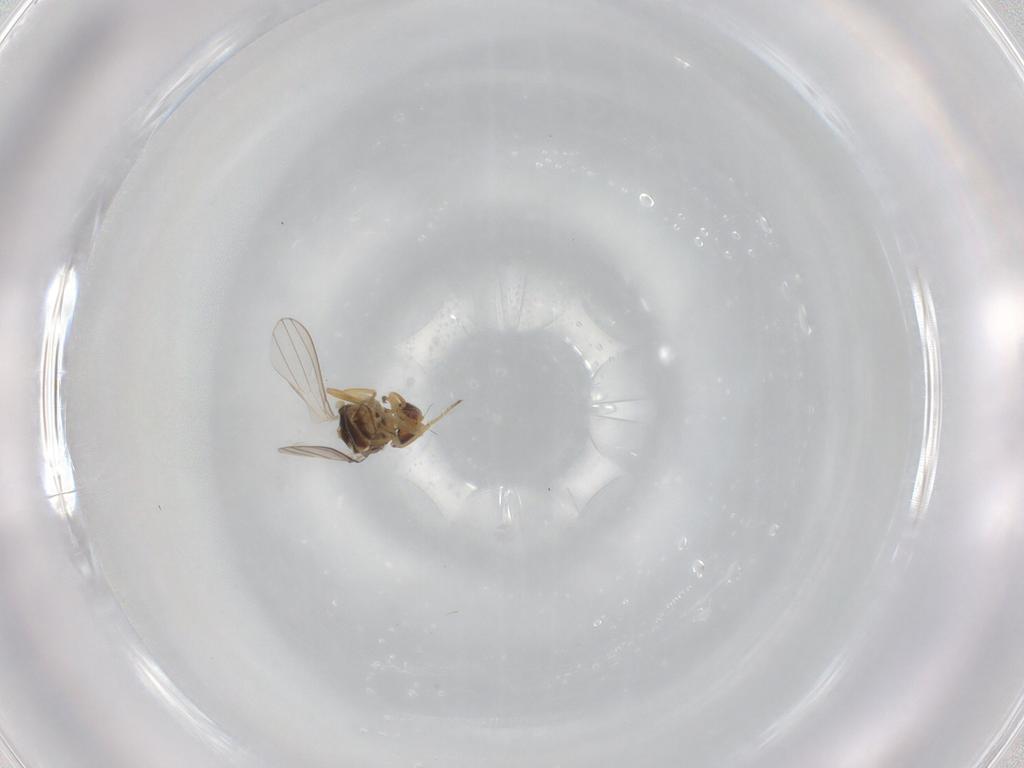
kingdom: Animalia
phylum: Arthropoda
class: Insecta
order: Diptera
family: Chyromyidae
